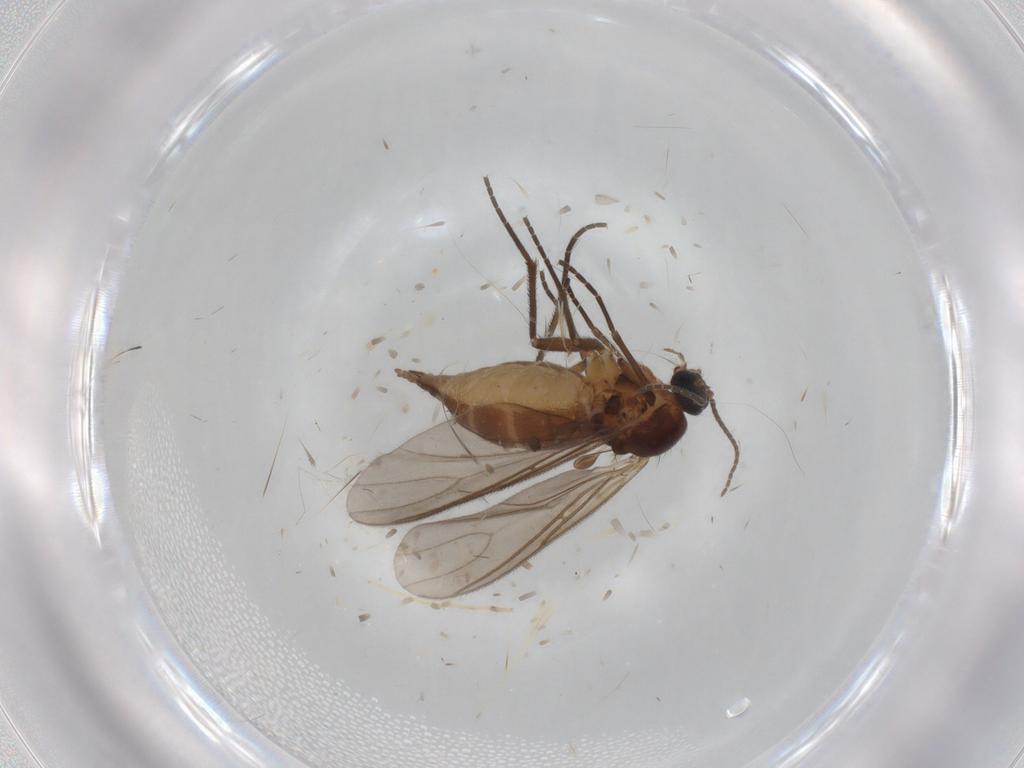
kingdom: Animalia
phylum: Arthropoda
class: Insecta
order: Diptera
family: Sciaridae
